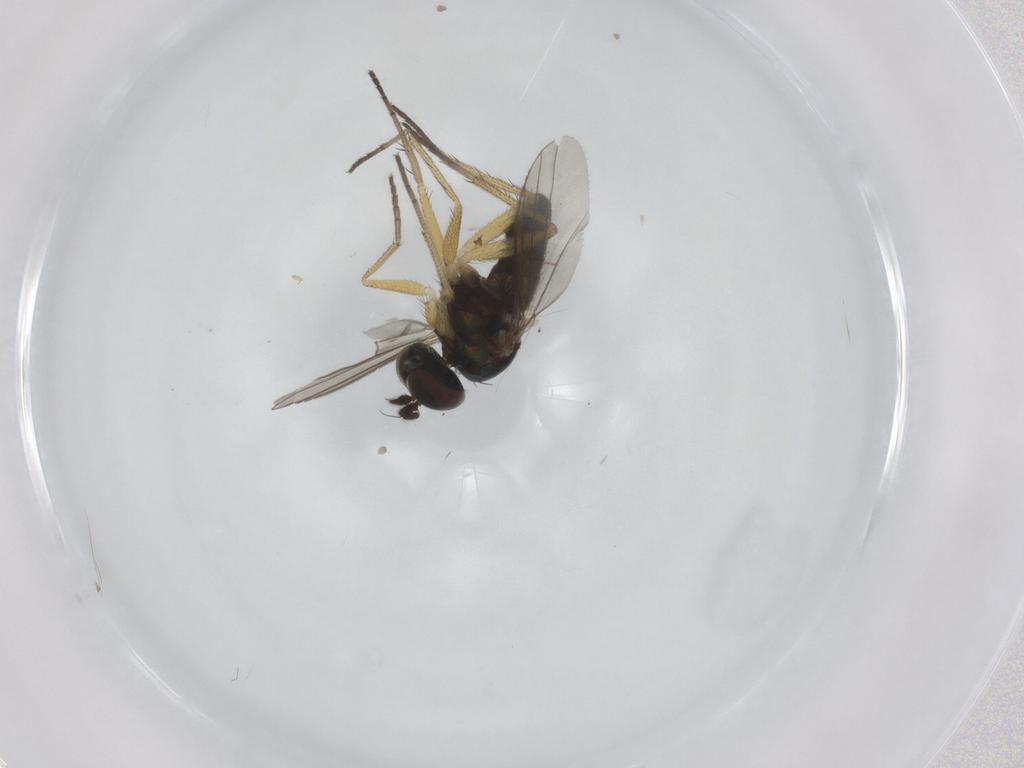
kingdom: Animalia
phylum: Arthropoda
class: Insecta
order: Diptera
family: Dolichopodidae
